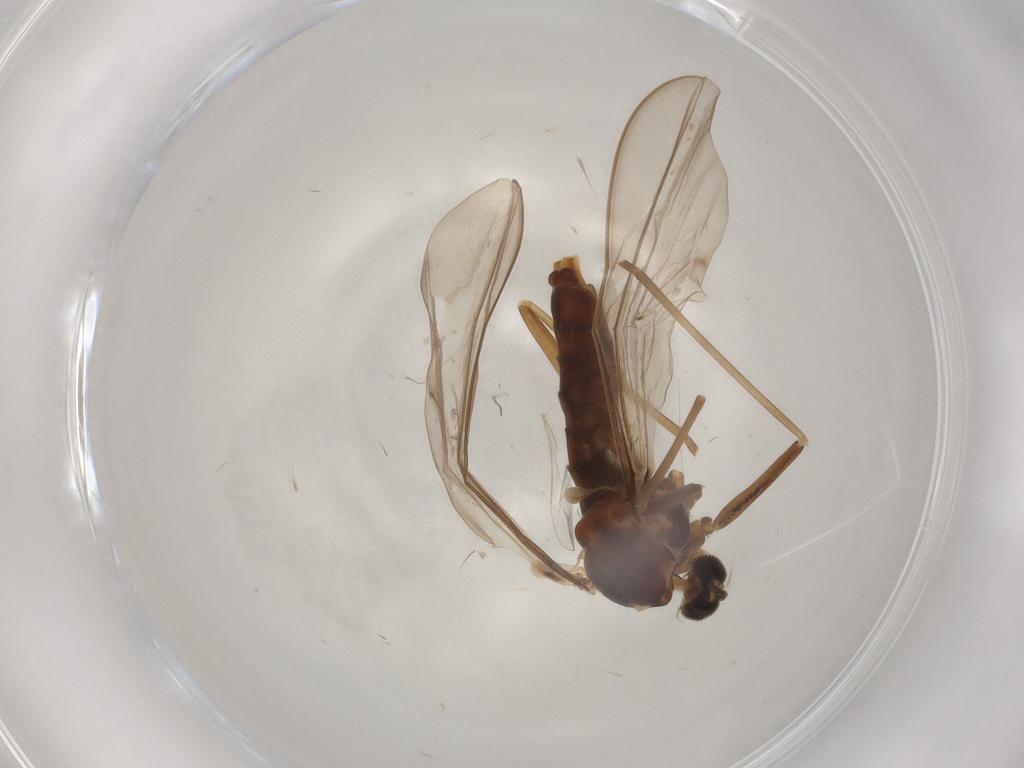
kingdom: Animalia
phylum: Arthropoda
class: Insecta
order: Diptera
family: Cecidomyiidae
